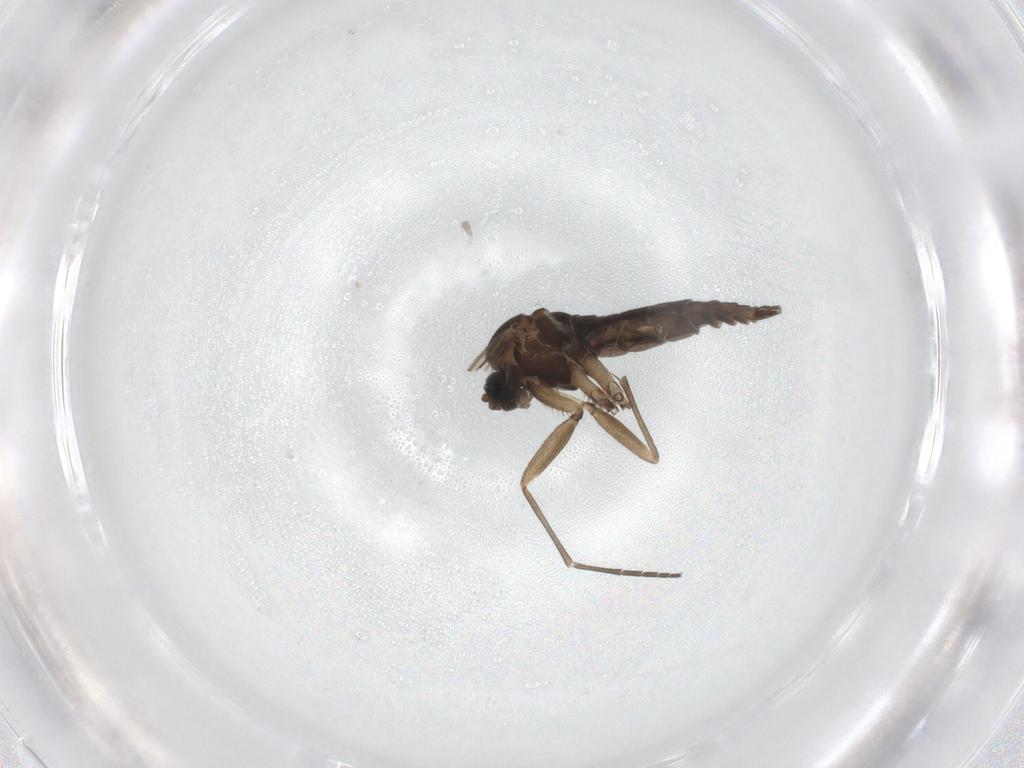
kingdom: Animalia
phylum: Arthropoda
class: Insecta
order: Diptera
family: Sciaridae
